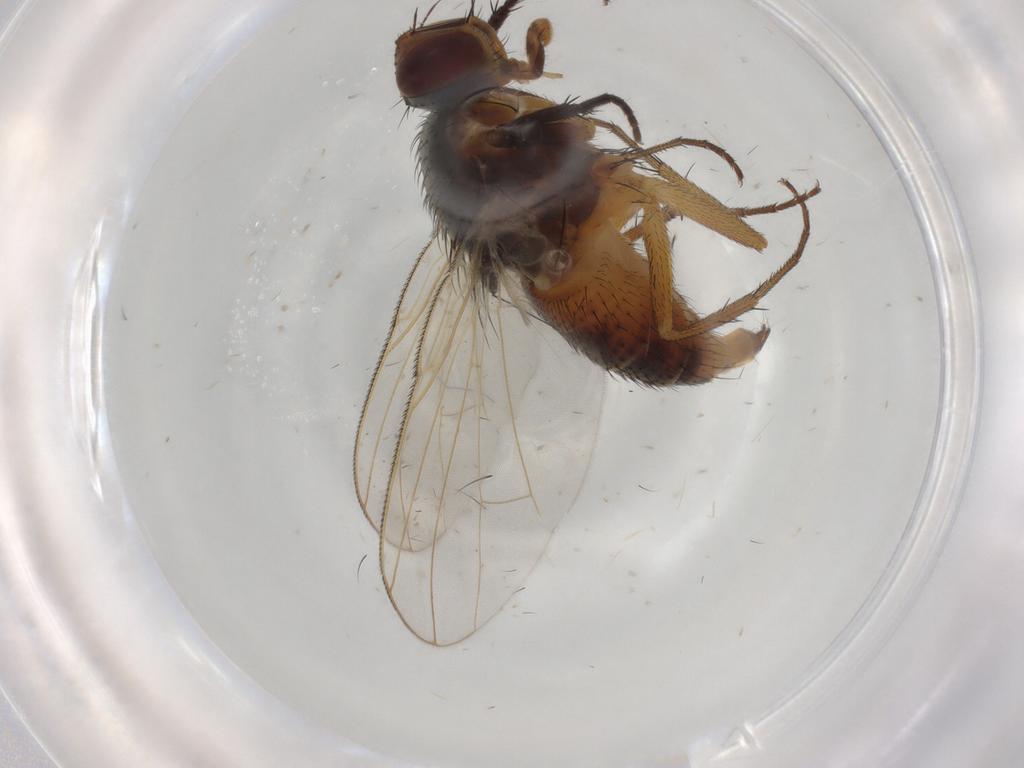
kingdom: Animalia
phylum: Arthropoda
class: Insecta
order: Diptera
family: Muscidae
